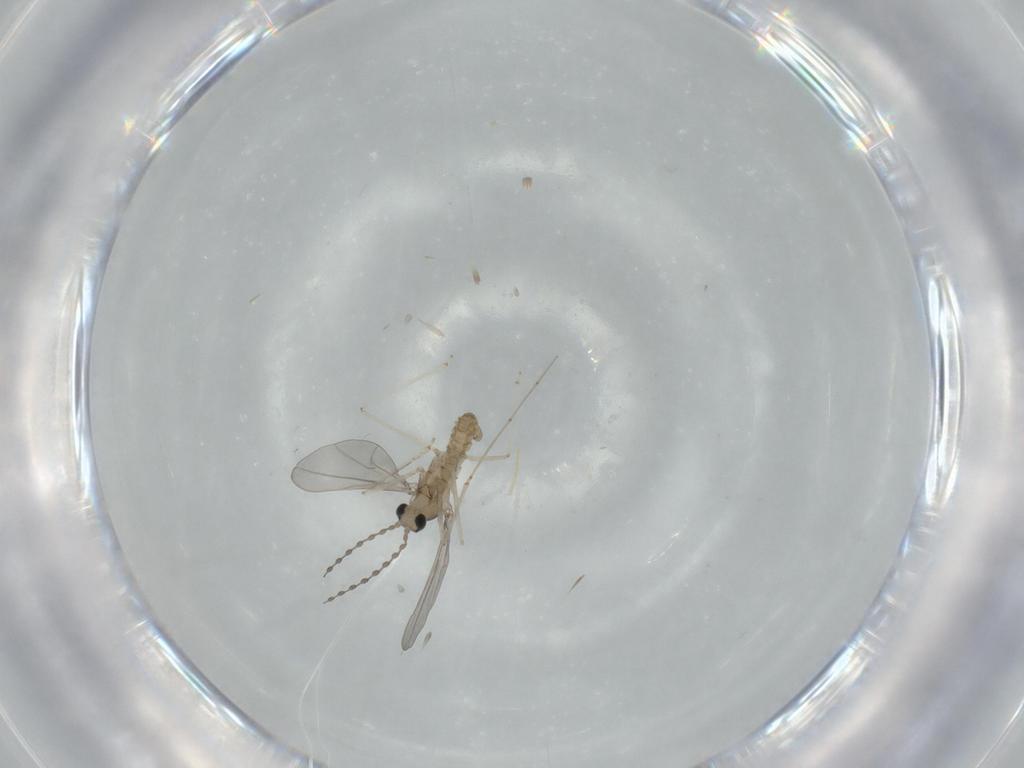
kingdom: Animalia
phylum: Arthropoda
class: Insecta
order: Diptera
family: Cecidomyiidae
